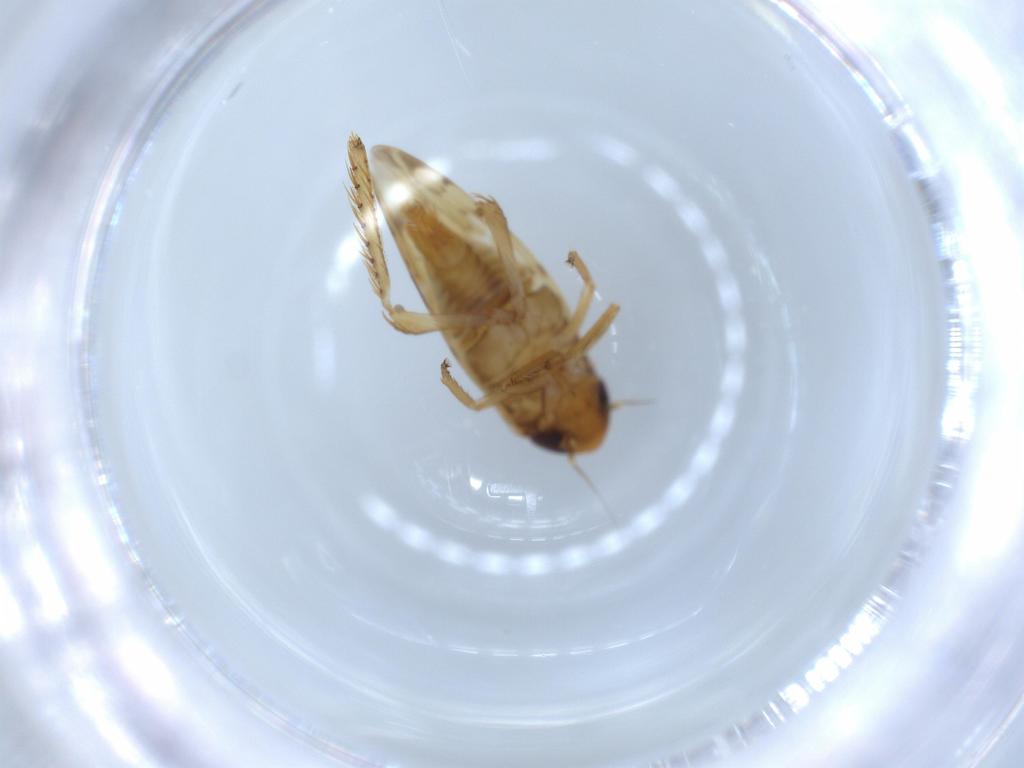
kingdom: Animalia
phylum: Arthropoda
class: Insecta
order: Hemiptera
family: Cicadellidae
